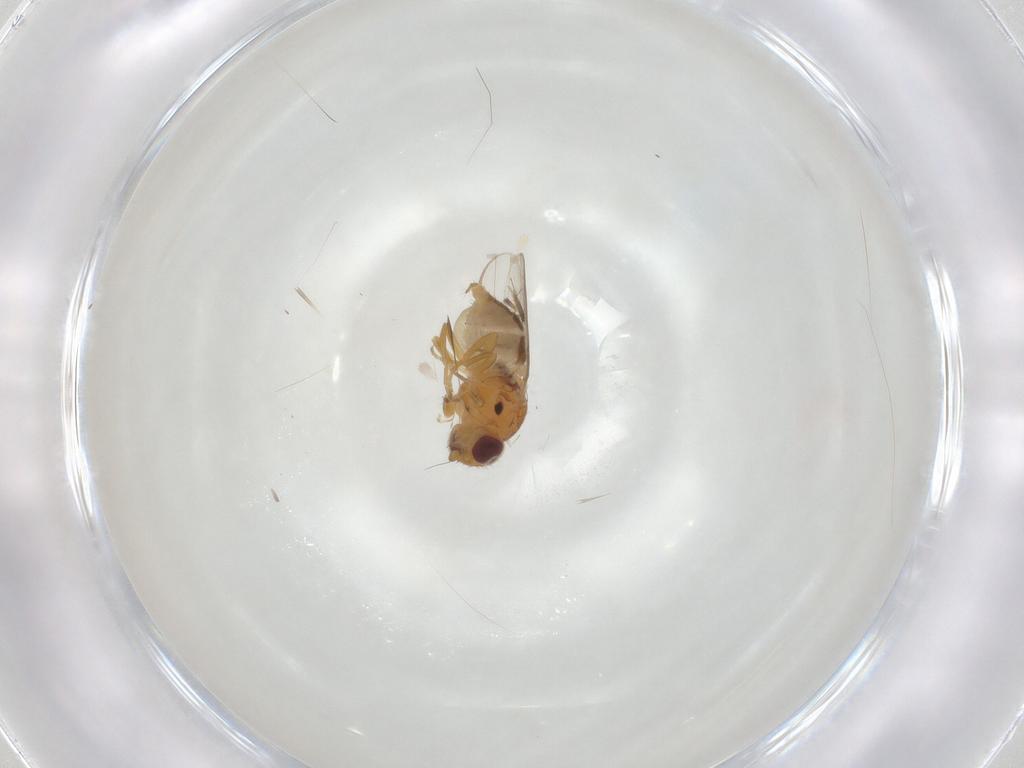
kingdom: Animalia
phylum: Arthropoda
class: Insecta
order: Diptera
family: Chloropidae
